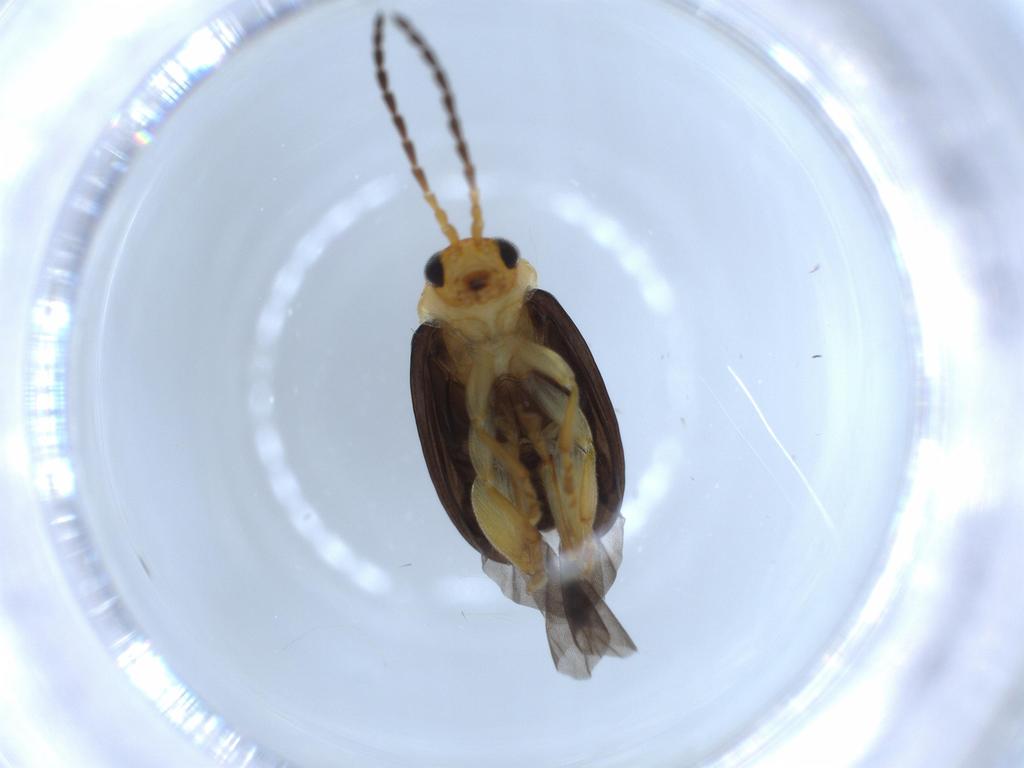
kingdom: Animalia
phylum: Arthropoda
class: Insecta
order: Coleoptera
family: Chrysomelidae
